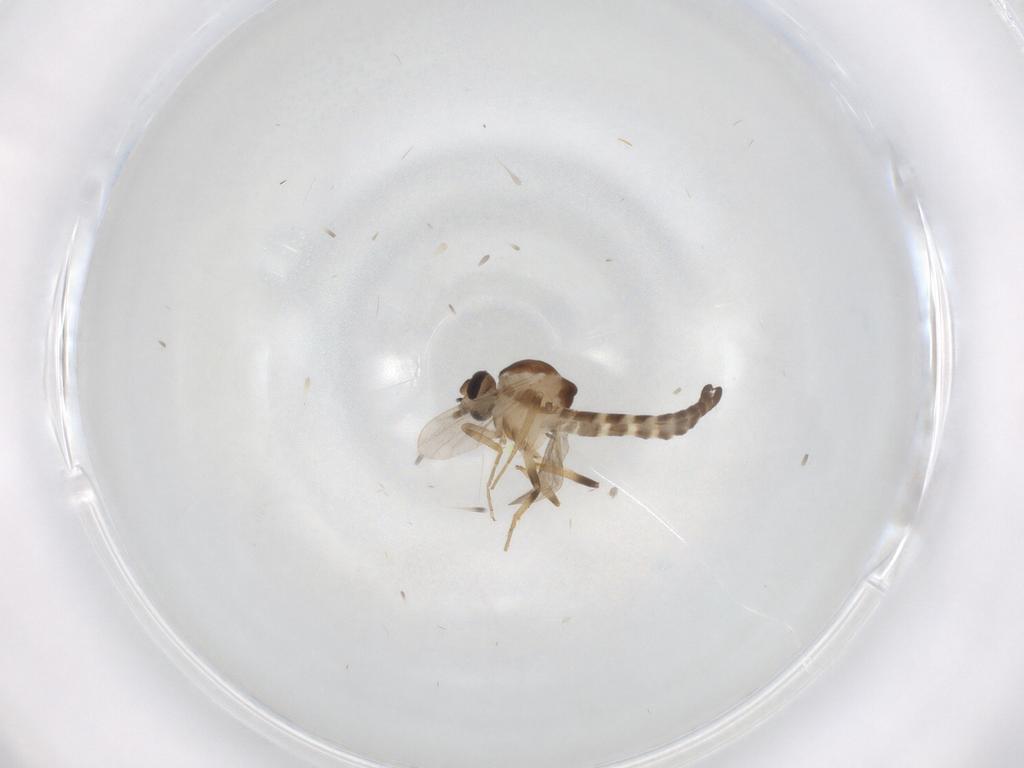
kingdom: Animalia
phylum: Arthropoda
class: Insecta
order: Diptera
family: Ceratopogonidae
